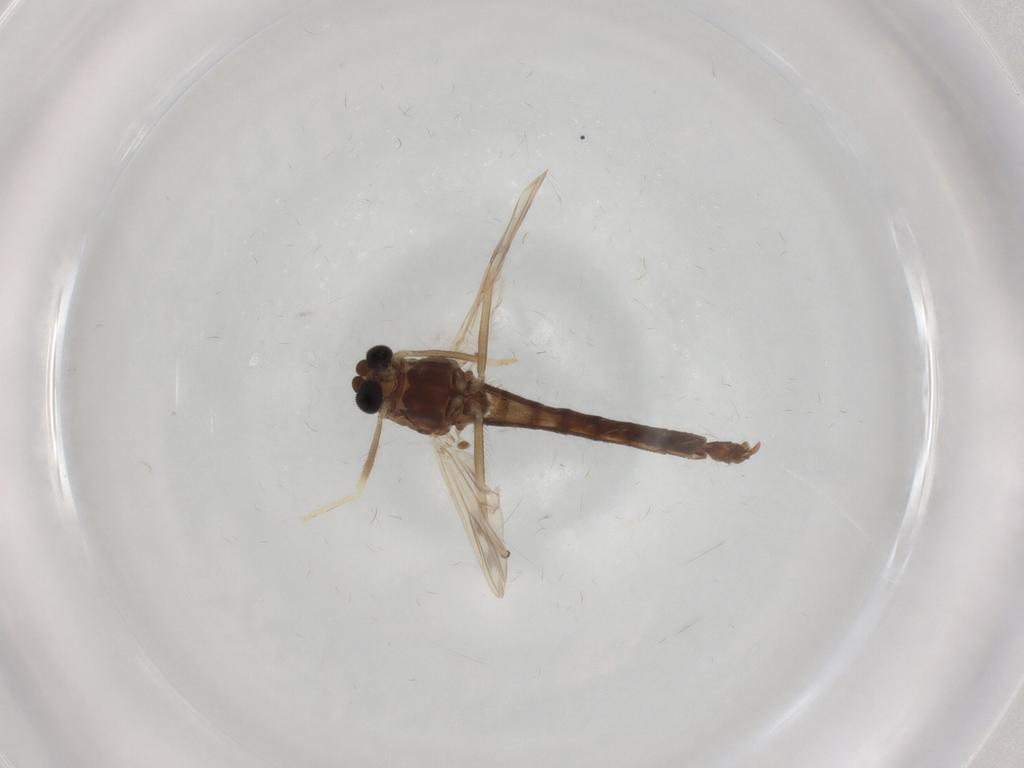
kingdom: Animalia
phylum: Arthropoda
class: Insecta
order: Diptera
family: Chironomidae
